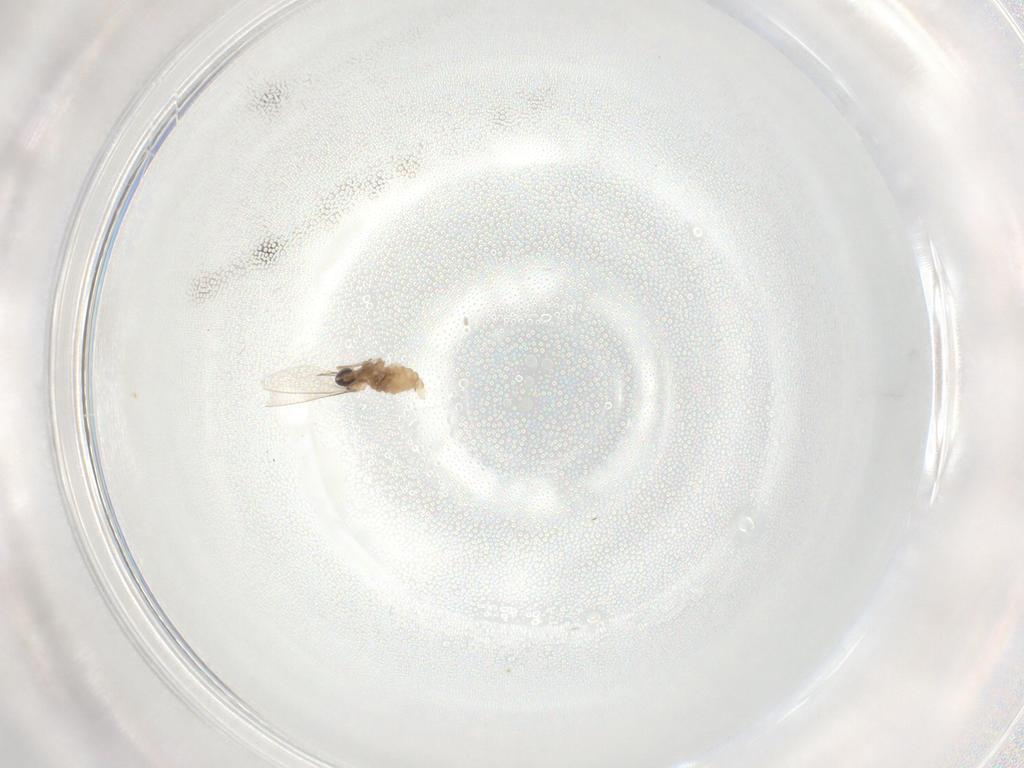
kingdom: Animalia
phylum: Arthropoda
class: Insecta
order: Diptera
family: Cecidomyiidae
